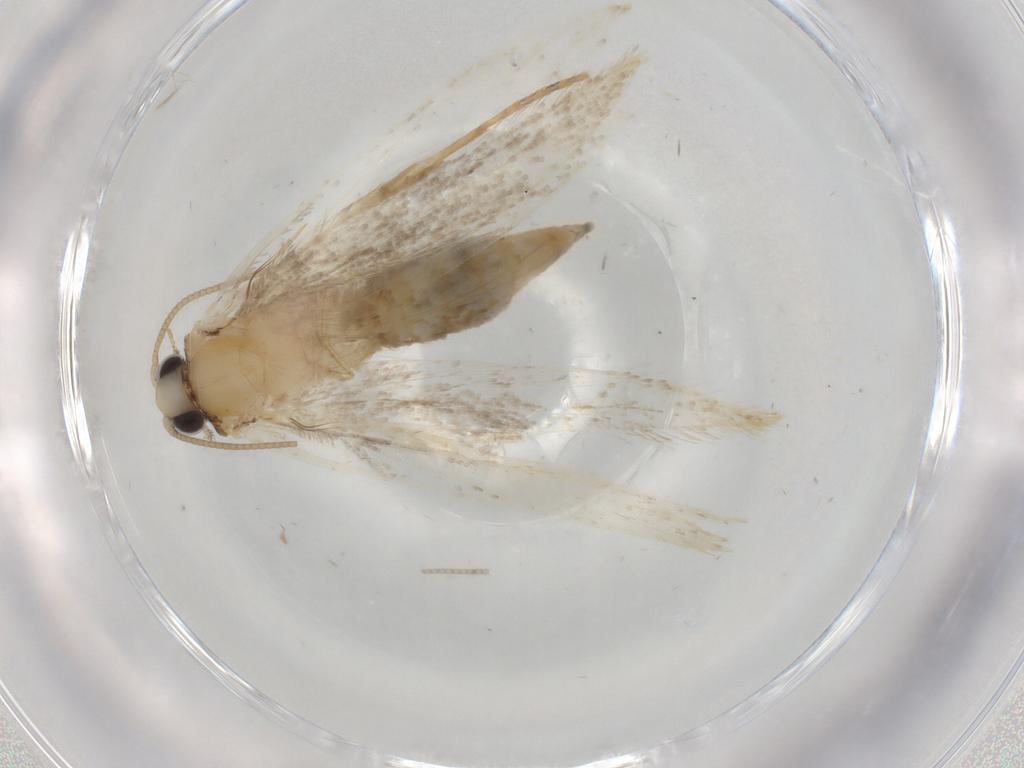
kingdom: Animalia
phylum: Arthropoda
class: Insecta
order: Lepidoptera
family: Tineidae
